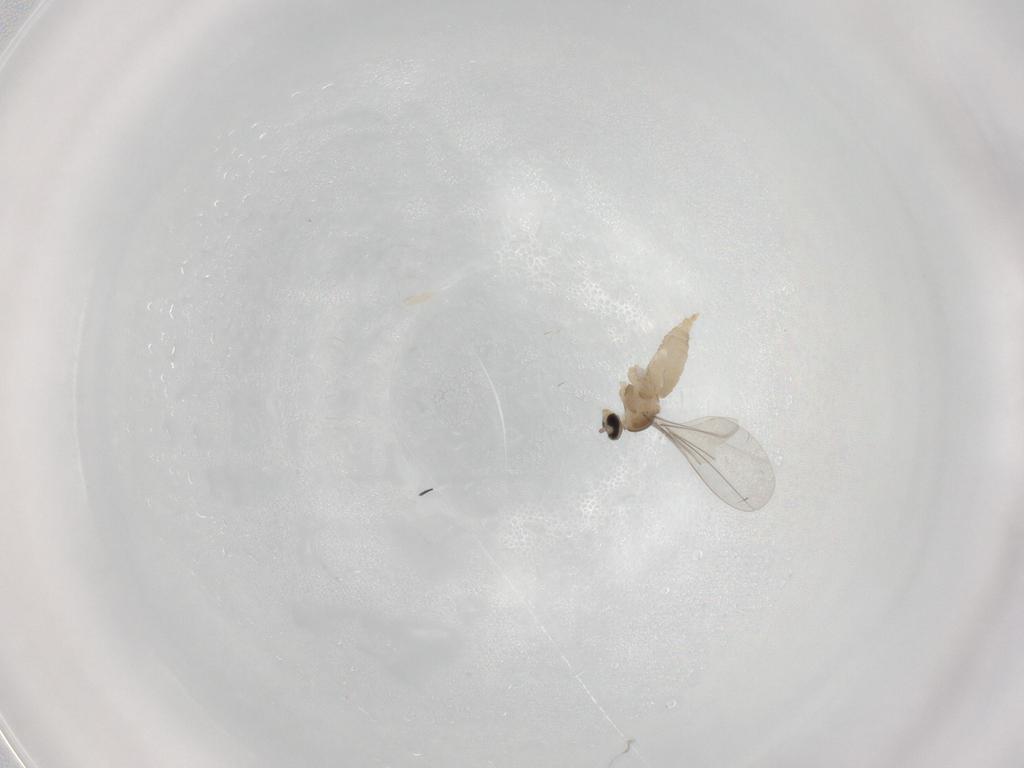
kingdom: Animalia
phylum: Arthropoda
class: Insecta
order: Diptera
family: Cecidomyiidae
